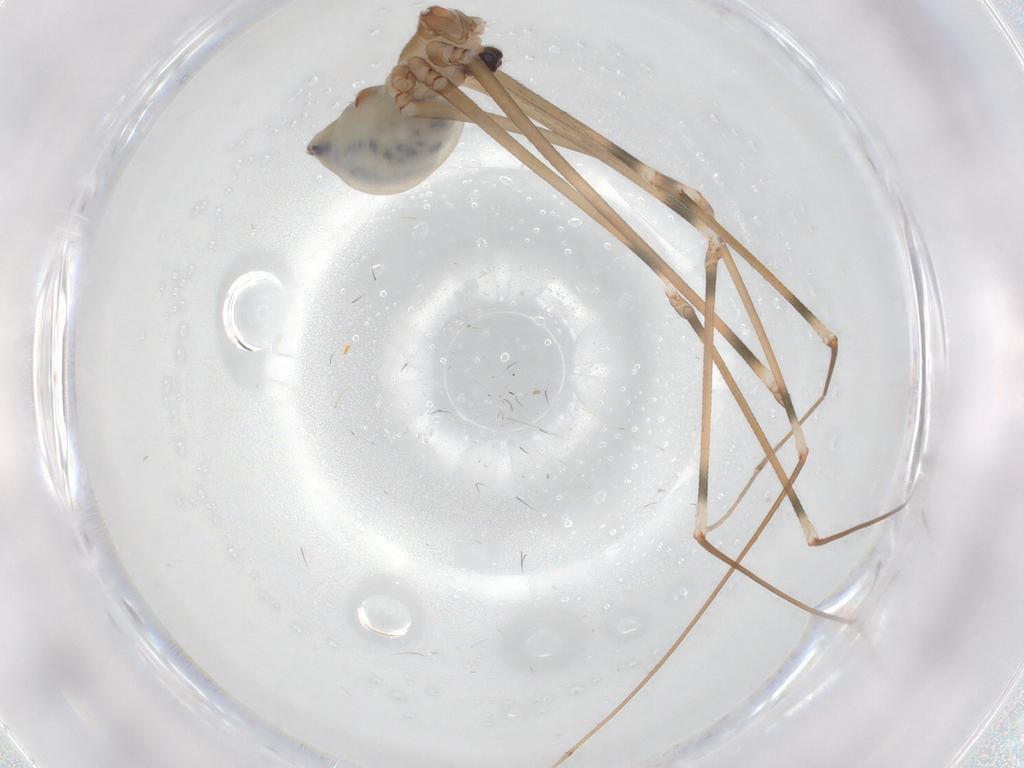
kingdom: Animalia
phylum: Arthropoda
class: Arachnida
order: Araneae
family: Pholcidae
